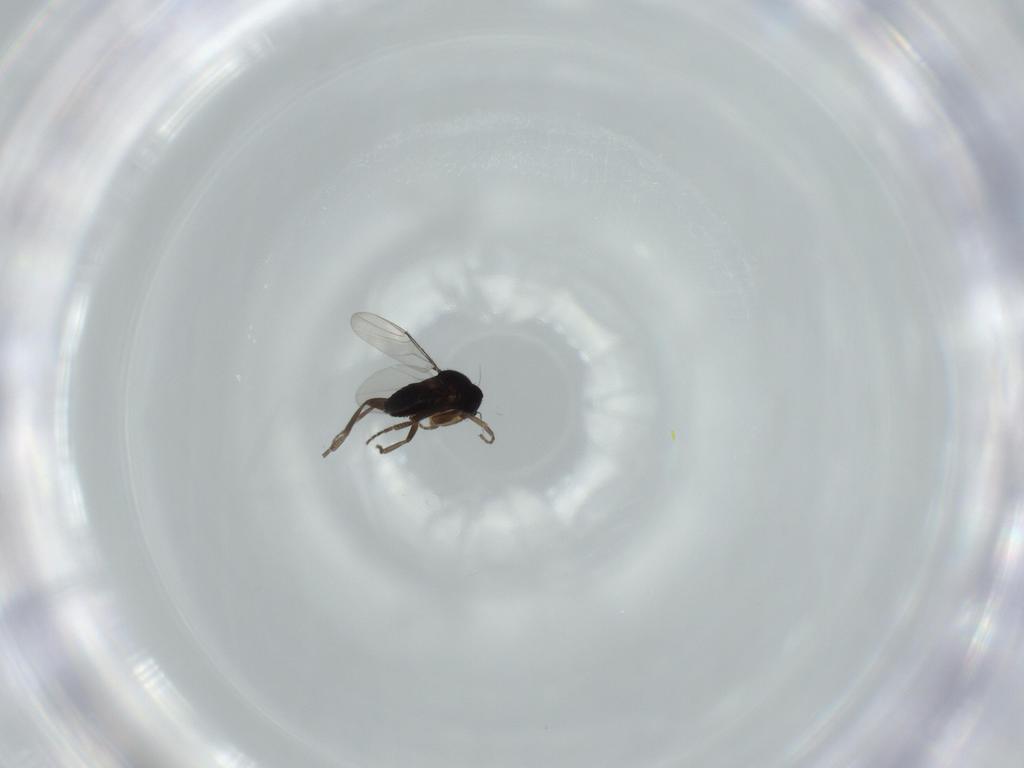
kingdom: Animalia
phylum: Arthropoda
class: Insecta
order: Diptera
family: Phoridae
